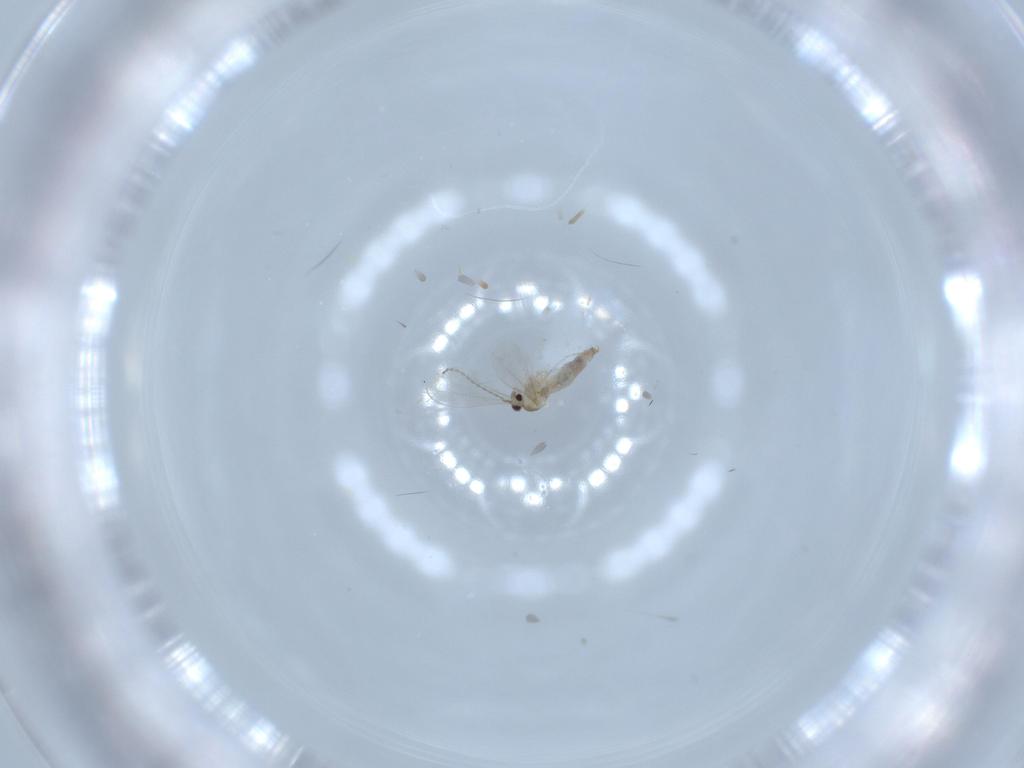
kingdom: Animalia
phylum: Arthropoda
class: Insecta
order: Diptera
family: Cecidomyiidae
